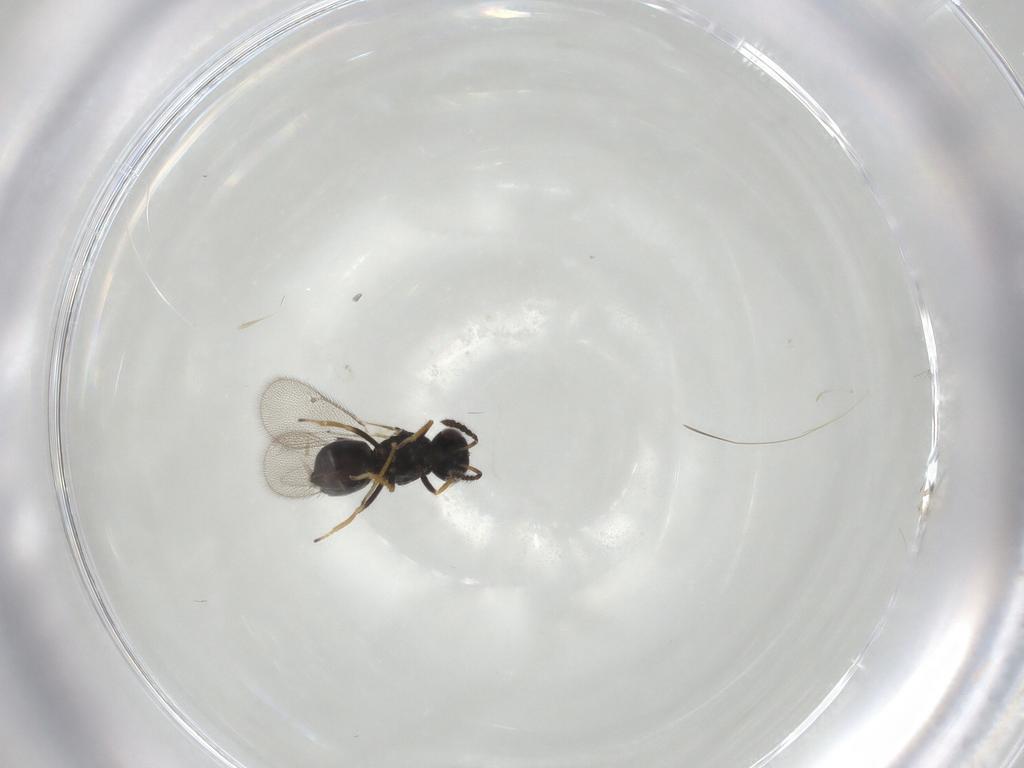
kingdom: Animalia
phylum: Arthropoda
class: Insecta
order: Hymenoptera
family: Eulophidae
